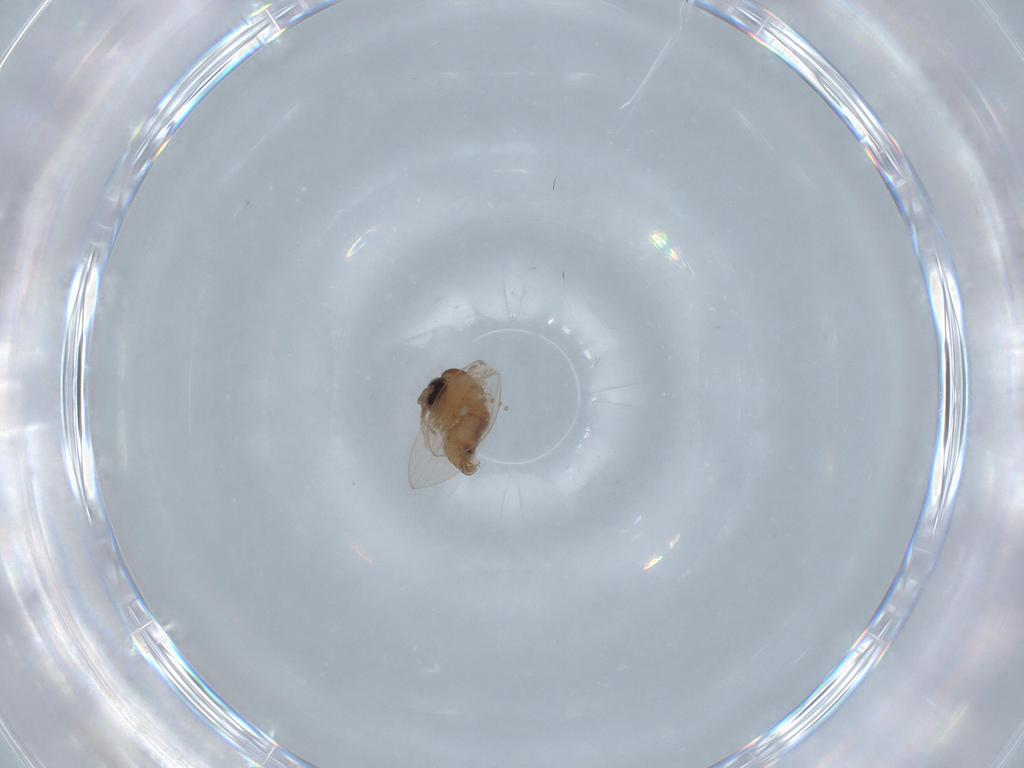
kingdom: Animalia
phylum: Arthropoda
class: Insecta
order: Diptera
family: Psychodidae
